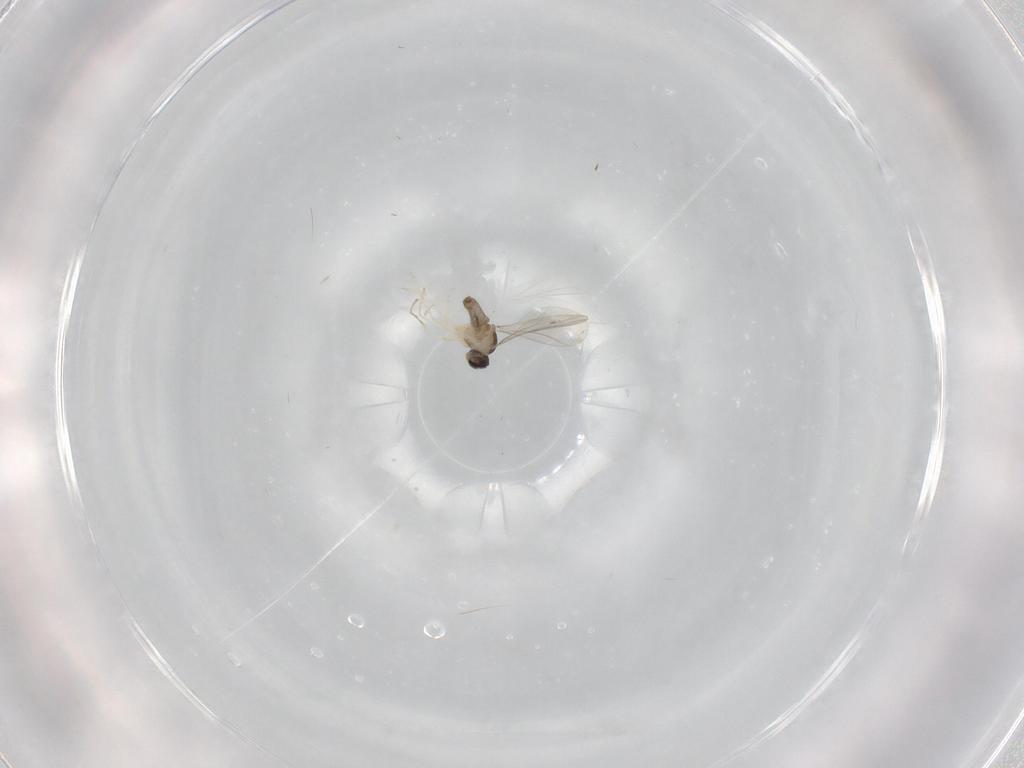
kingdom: Animalia
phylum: Arthropoda
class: Insecta
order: Diptera
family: Cecidomyiidae
